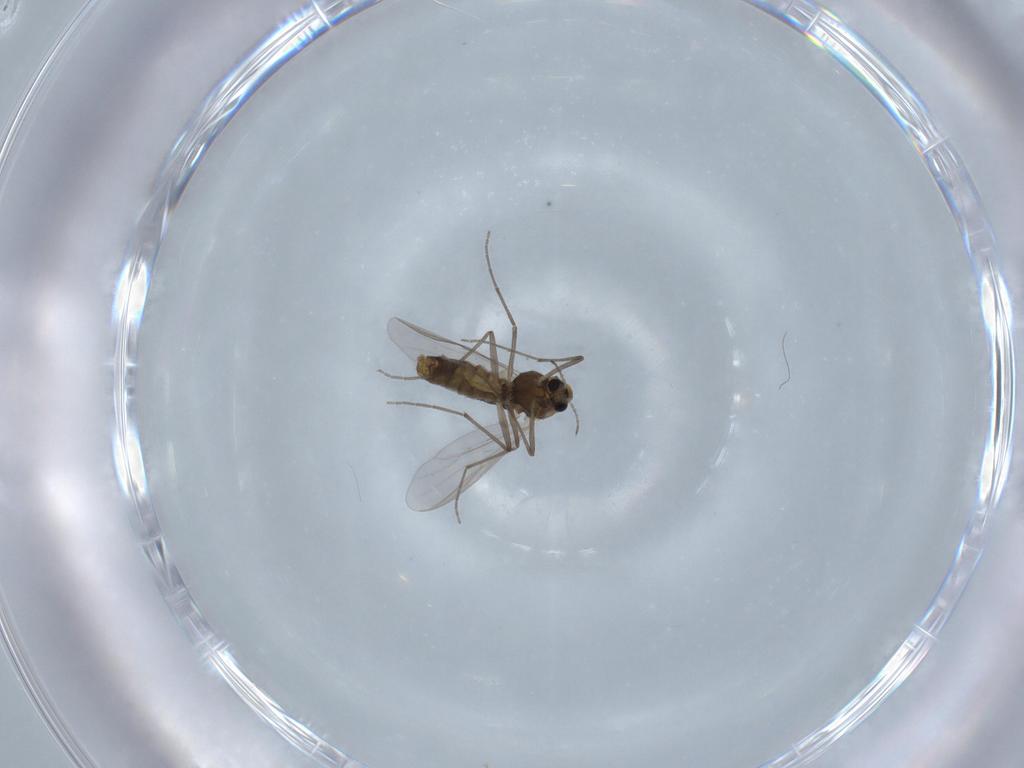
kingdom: Animalia
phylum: Arthropoda
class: Insecta
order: Diptera
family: Chironomidae
